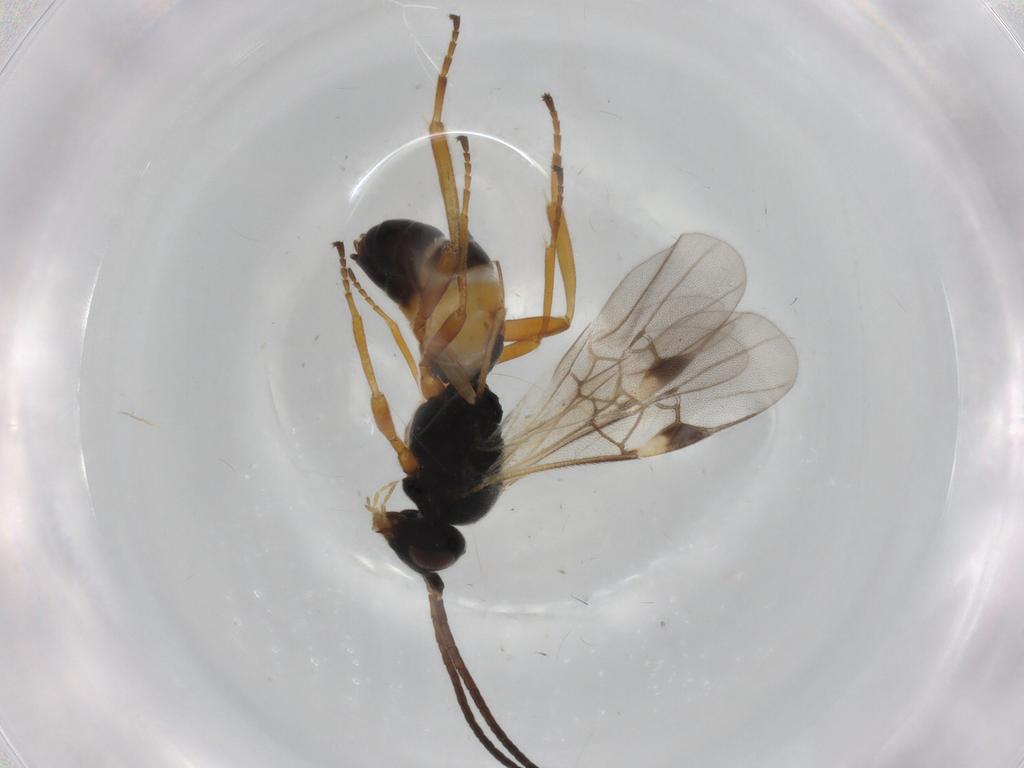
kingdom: Animalia
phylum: Arthropoda
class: Insecta
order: Hymenoptera
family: Braconidae
